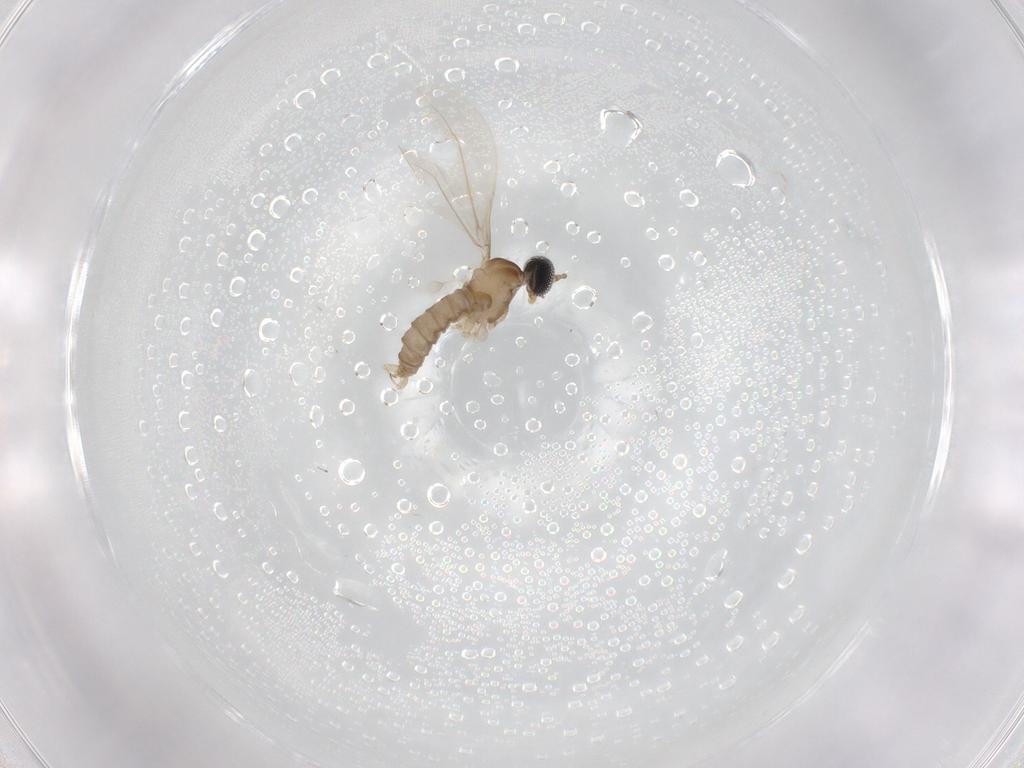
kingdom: Animalia
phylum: Arthropoda
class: Insecta
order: Diptera
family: Cecidomyiidae
